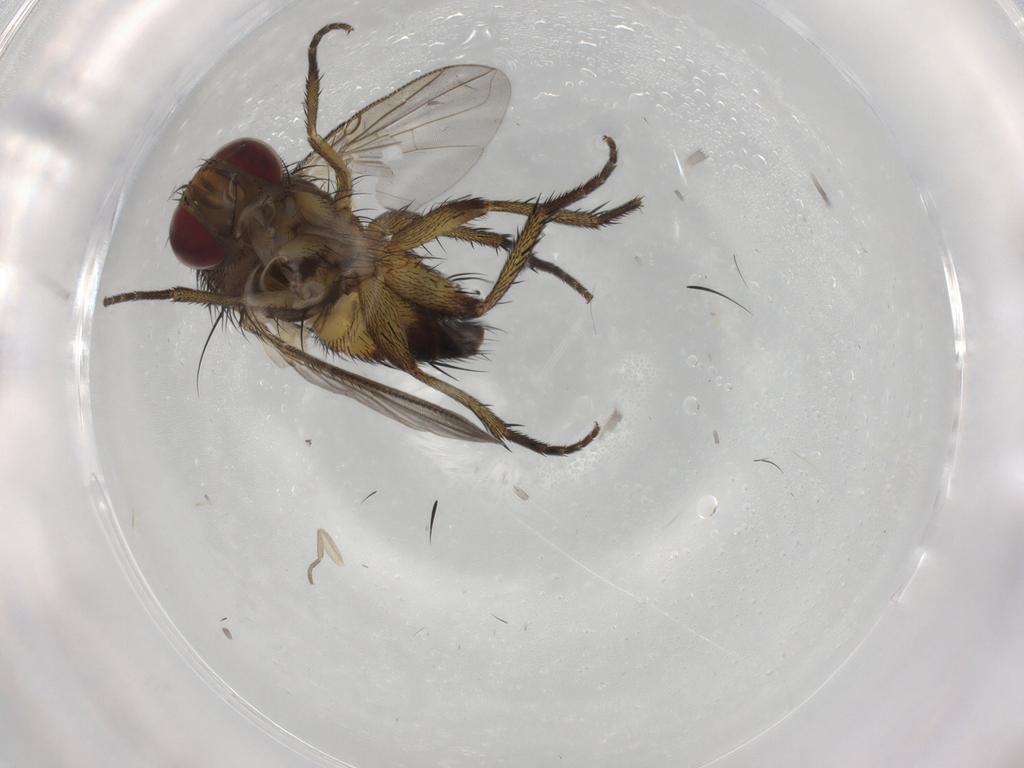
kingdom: Animalia
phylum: Arthropoda
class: Insecta
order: Diptera
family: Phoridae
